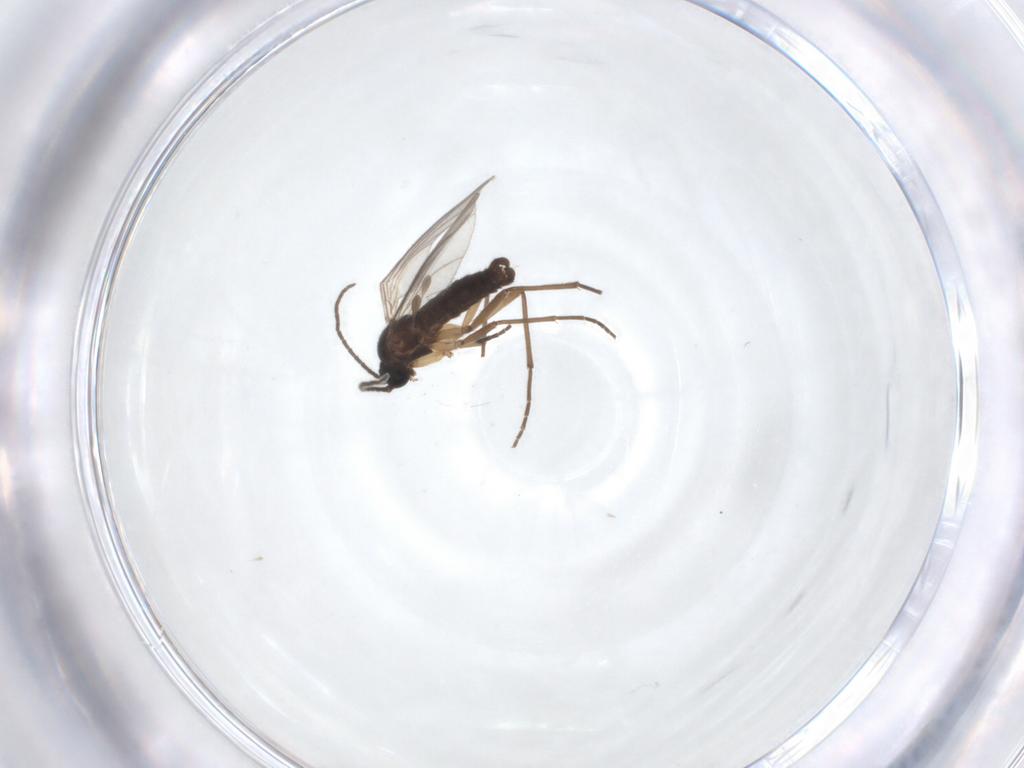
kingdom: Animalia
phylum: Arthropoda
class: Insecta
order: Diptera
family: Sciaridae
